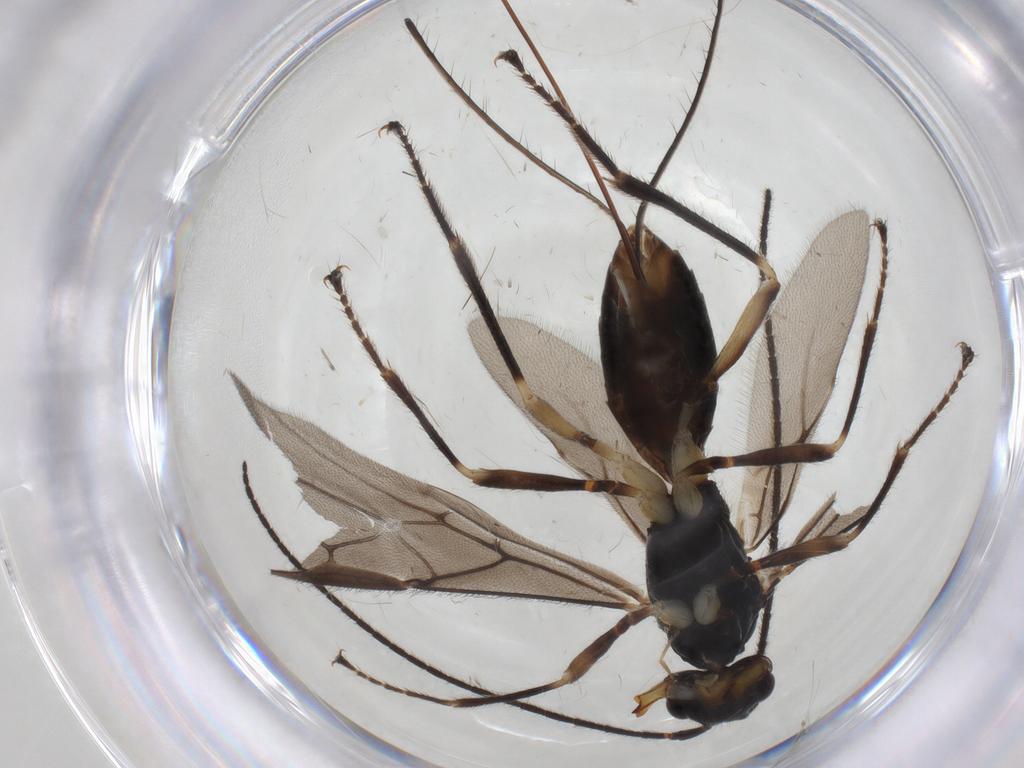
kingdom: Animalia
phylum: Arthropoda
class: Insecta
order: Hymenoptera
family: Braconidae
